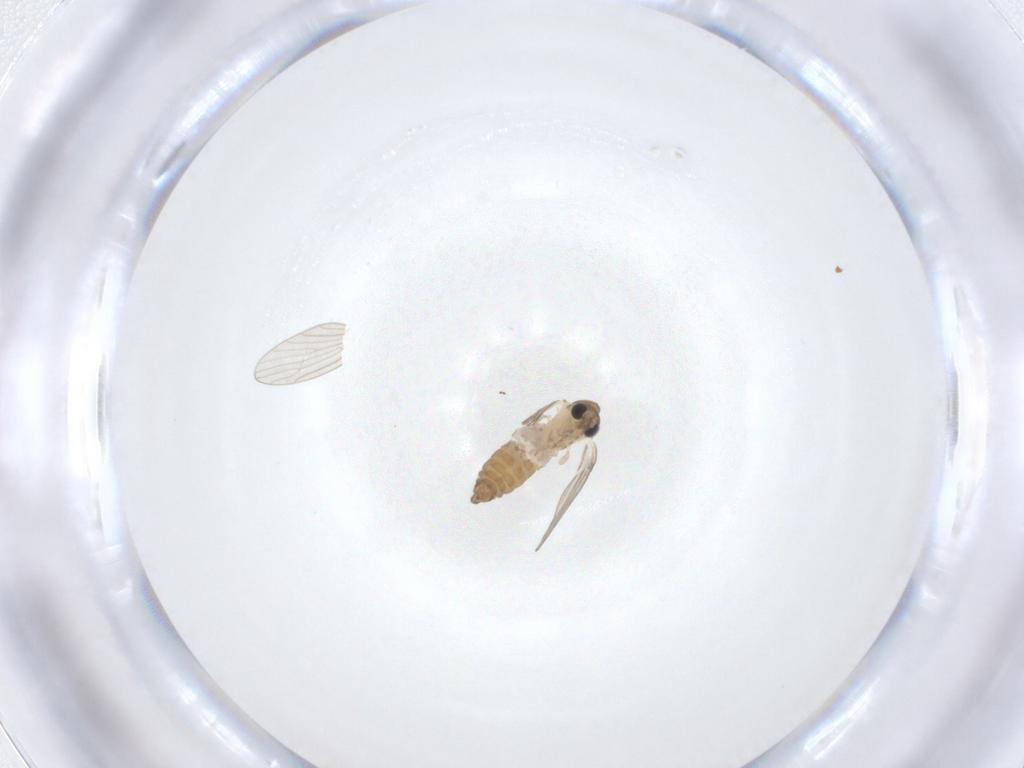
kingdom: Animalia
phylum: Arthropoda
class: Insecta
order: Diptera
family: Psychodidae
